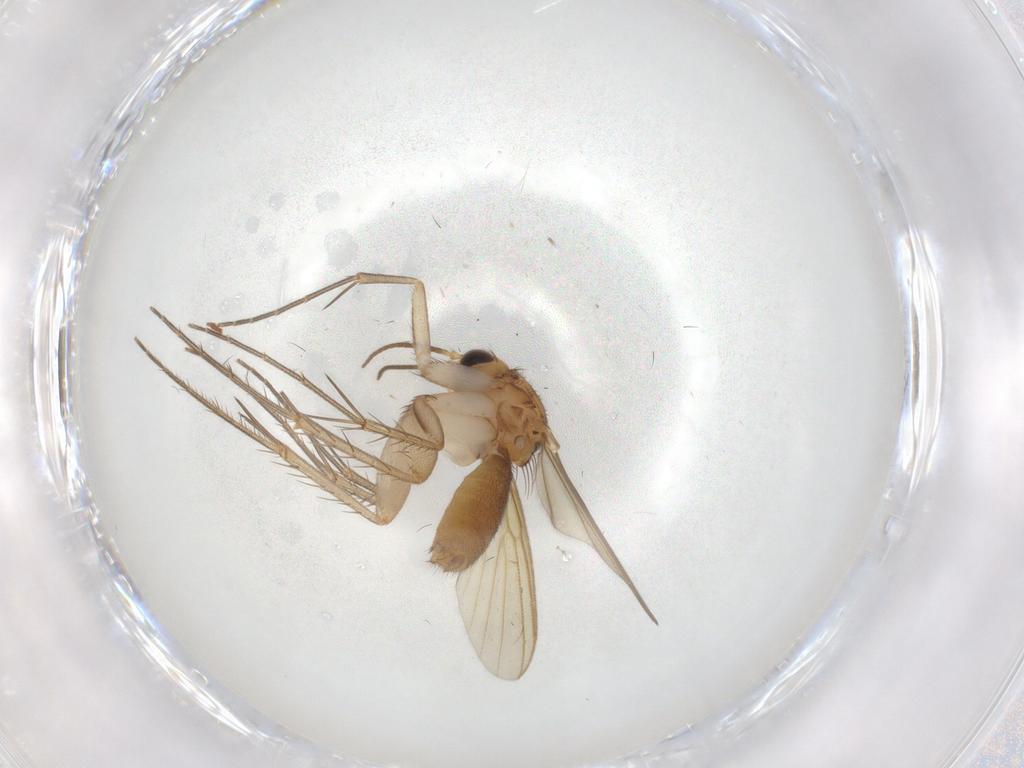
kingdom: Animalia
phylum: Arthropoda
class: Insecta
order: Diptera
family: Mycetophilidae
